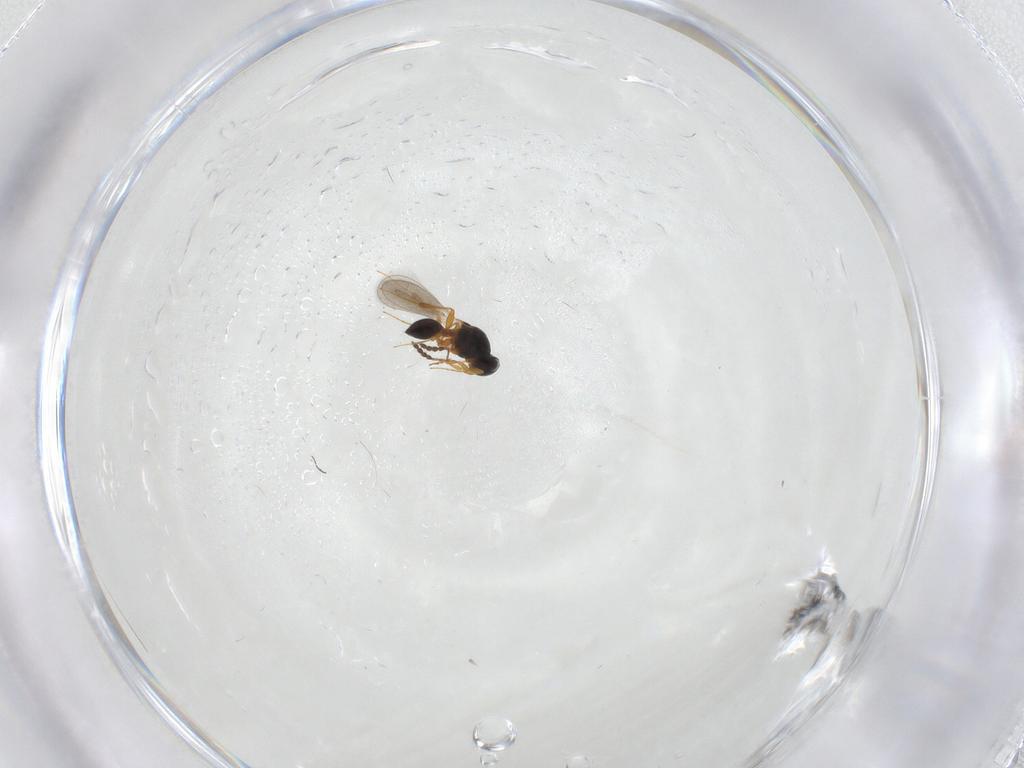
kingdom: Animalia
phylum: Arthropoda
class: Insecta
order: Hymenoptera
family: Platygastridae
